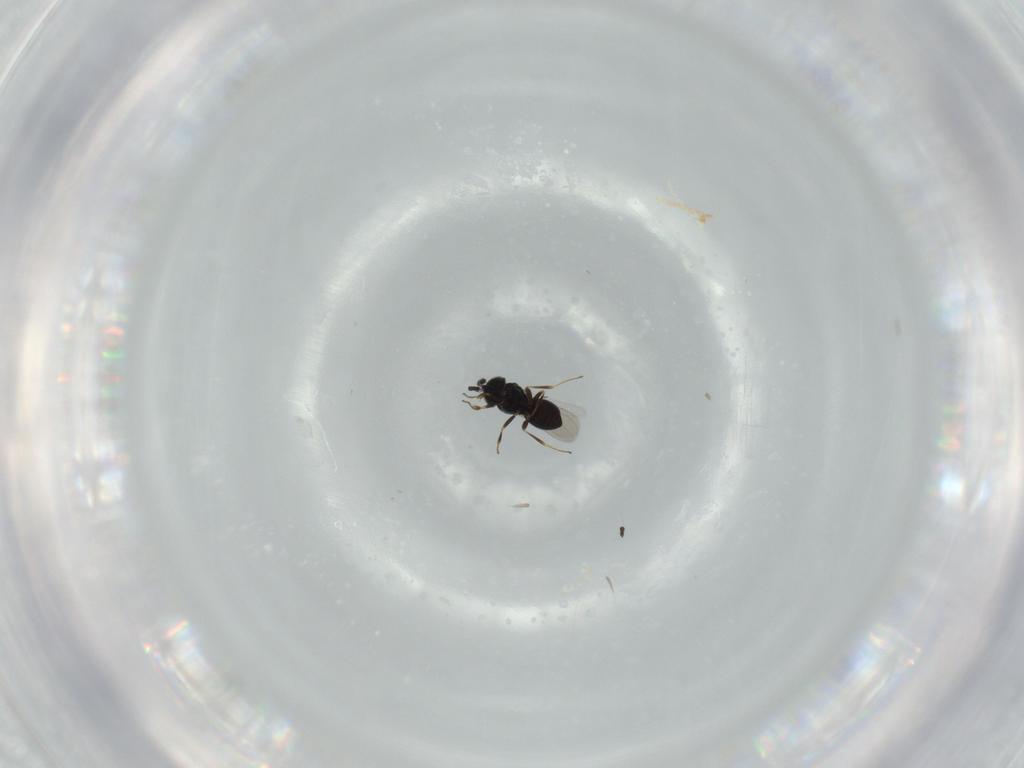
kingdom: Animalia
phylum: Arthropoda
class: Insecta
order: Hymenoptera
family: Scelionidae
